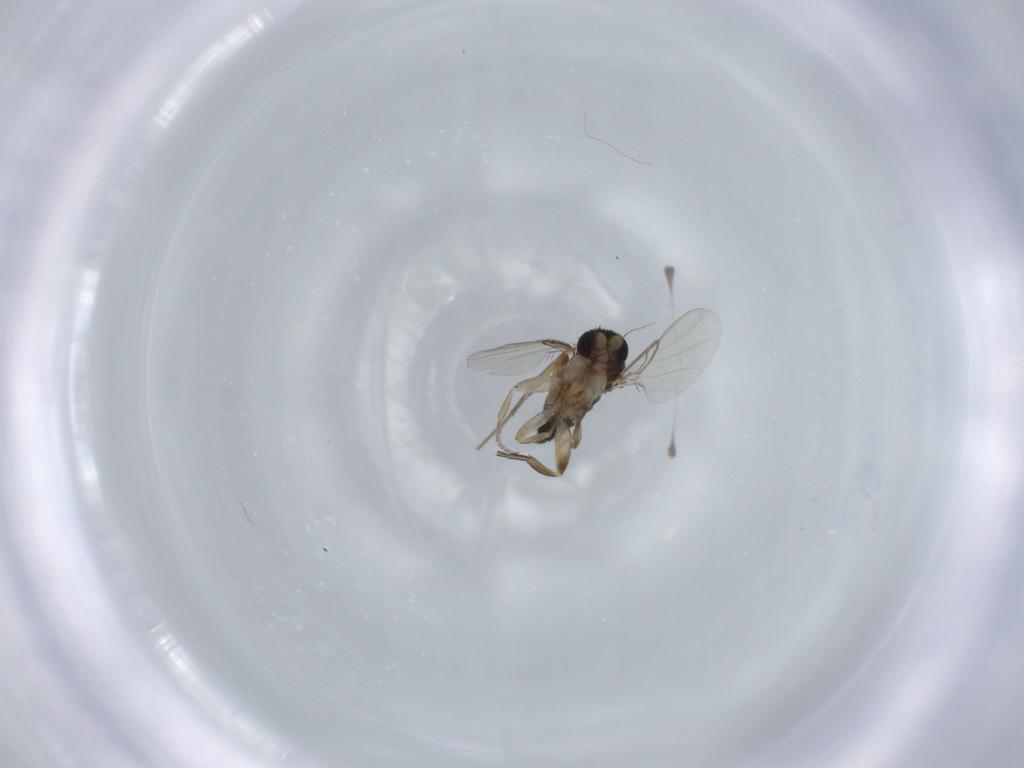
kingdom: Animalia
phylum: Arthropoda
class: Insecta
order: Diptera
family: Phoridae
